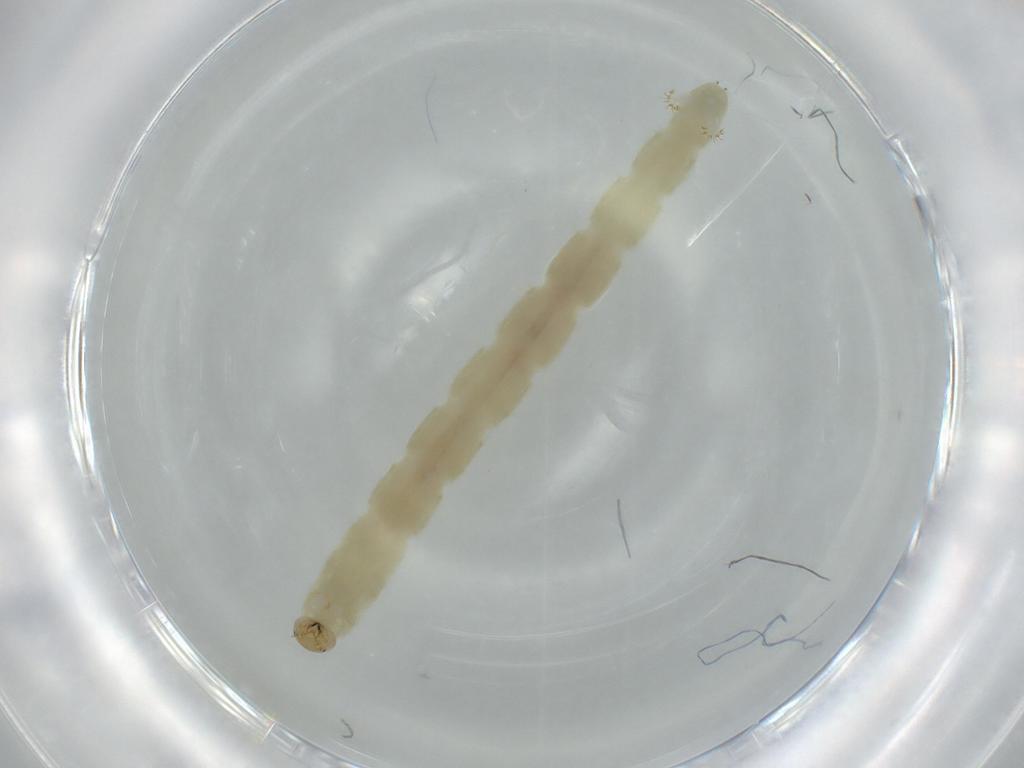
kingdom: Animalia
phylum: Arthropoda
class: Insecta
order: Diptera
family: Chironomidae
